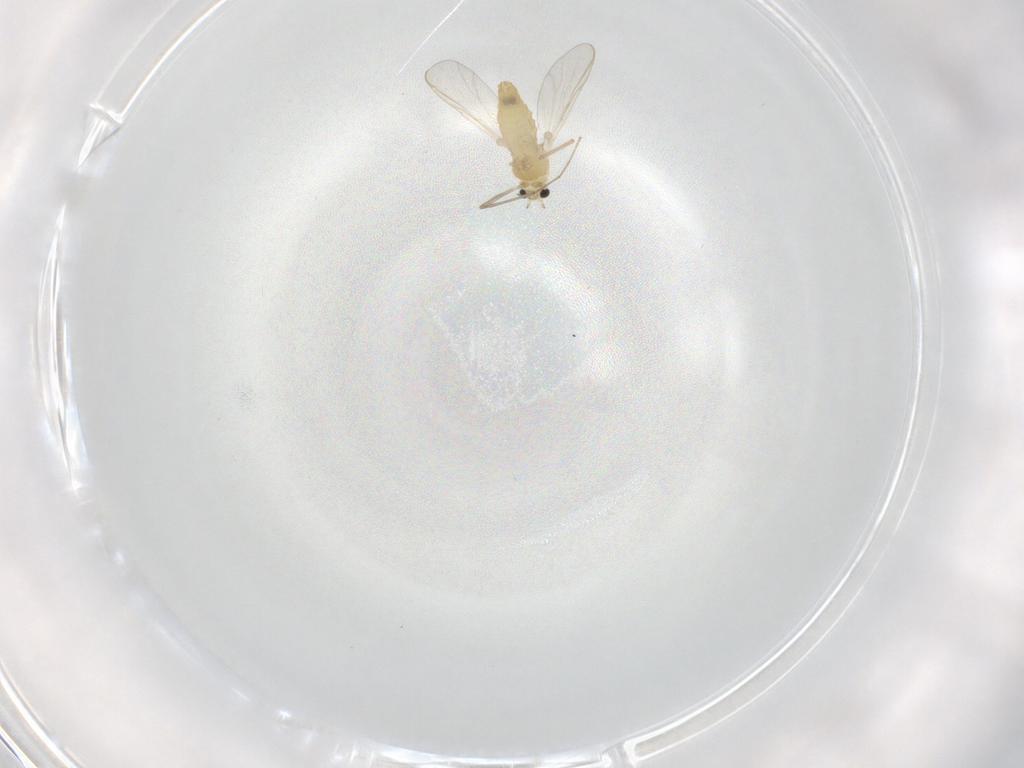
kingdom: Animalia
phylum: Arthropoda
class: Insecta
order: Diptera
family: Chironomidae
